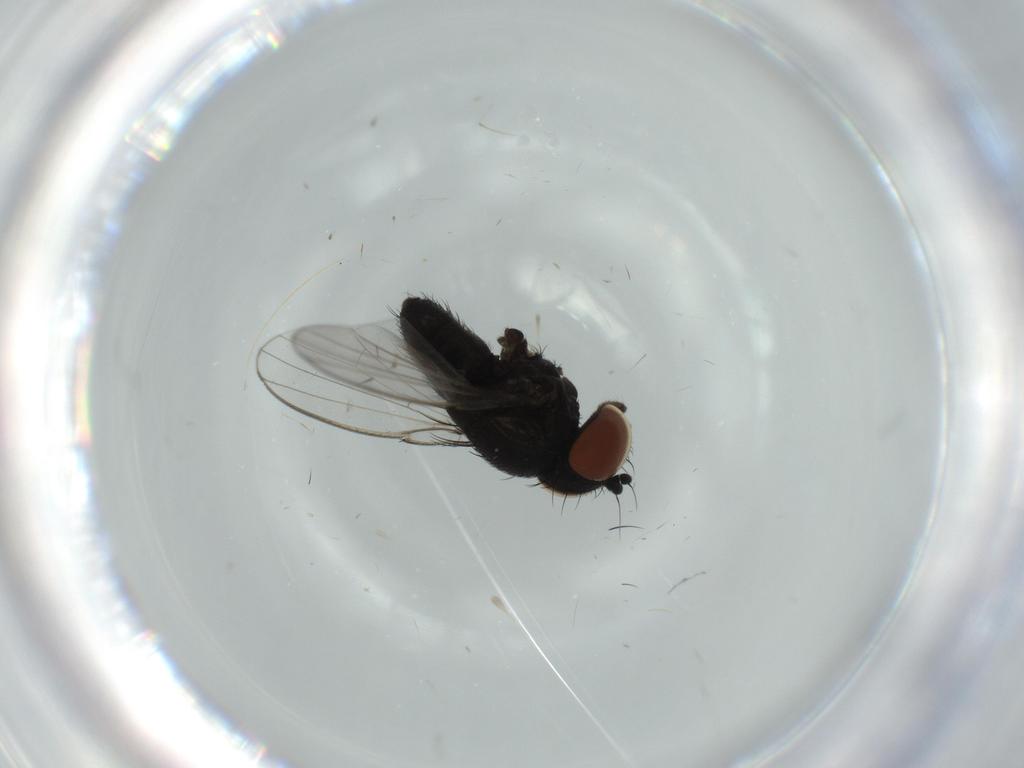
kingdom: Animalia
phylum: Arthropoda
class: Insecta
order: Diptera
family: Milichiidae
